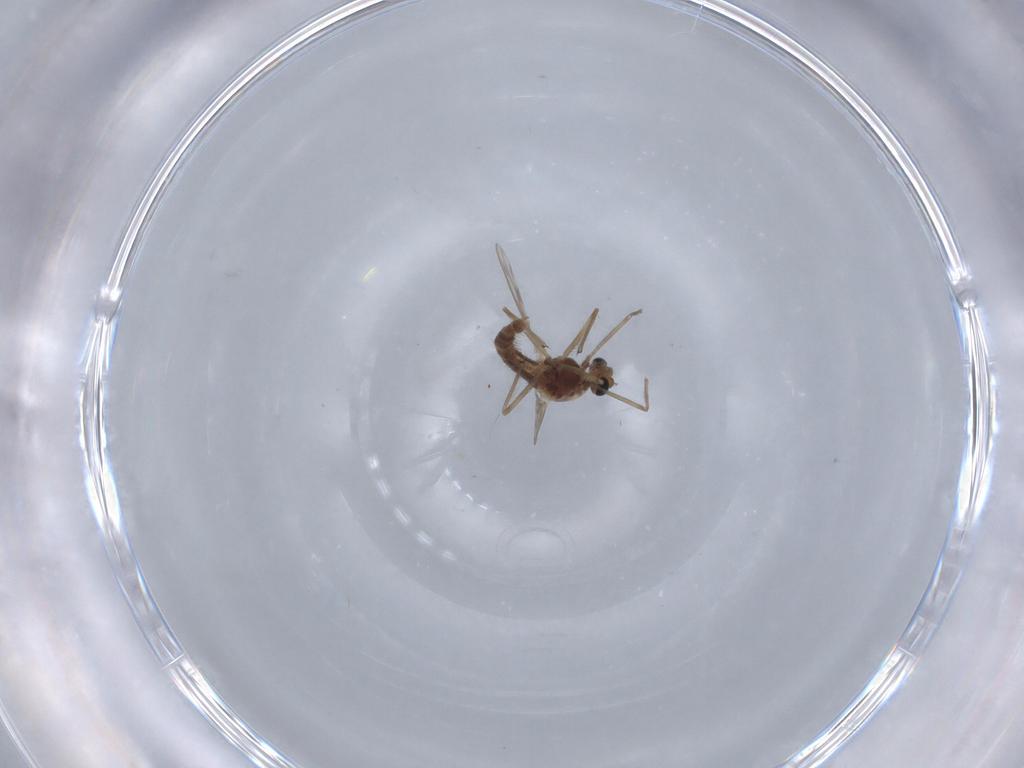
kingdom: Animalia
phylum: Arthropoda
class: Insecta
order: Diptera
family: Chironomidae
